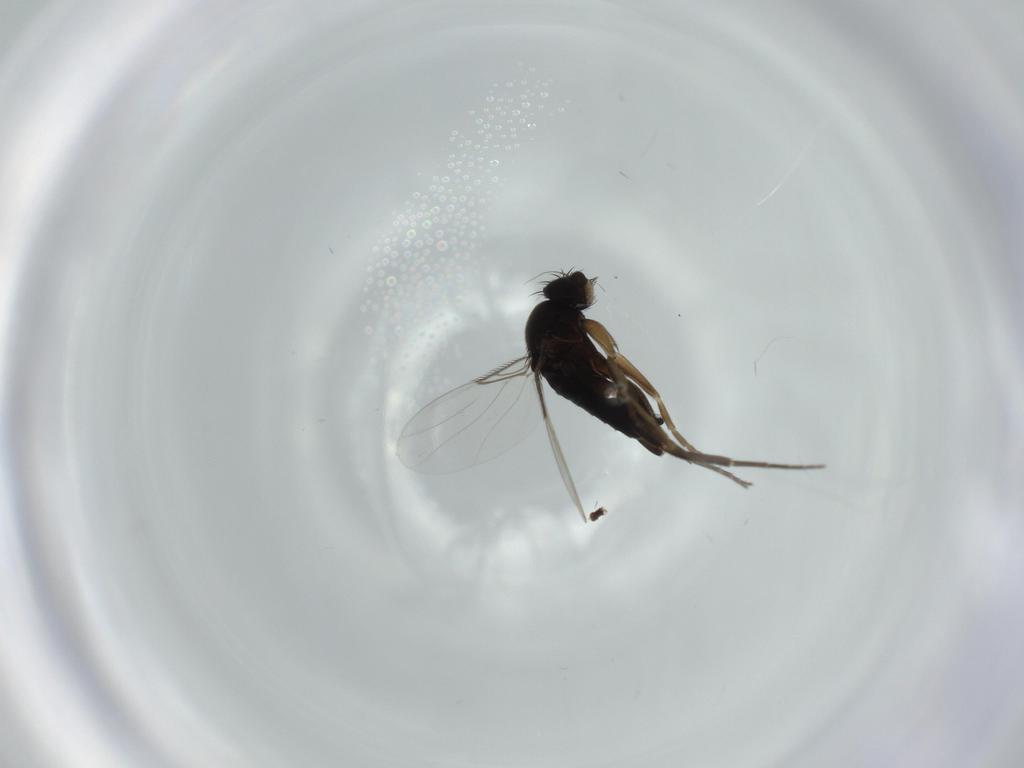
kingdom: Animalia
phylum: Arthropoda
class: Insecta
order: Diptera
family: Phoridae
